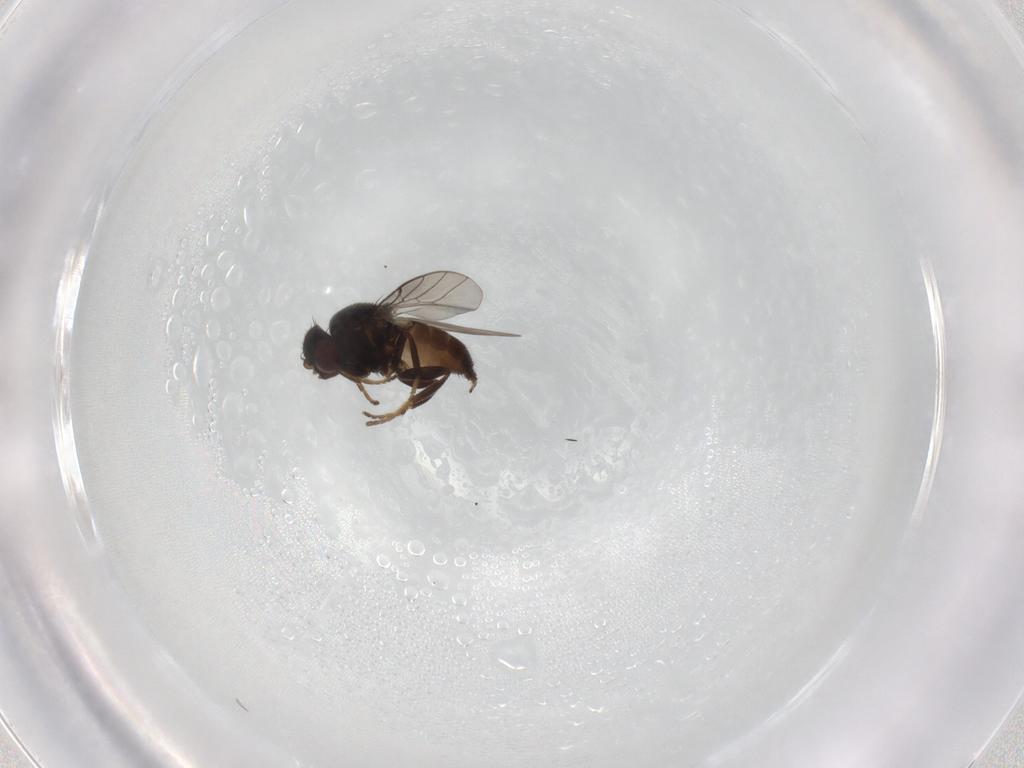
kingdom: Animalia
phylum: Arthropoda
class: Insecta
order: Diptera
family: Chloropidae
